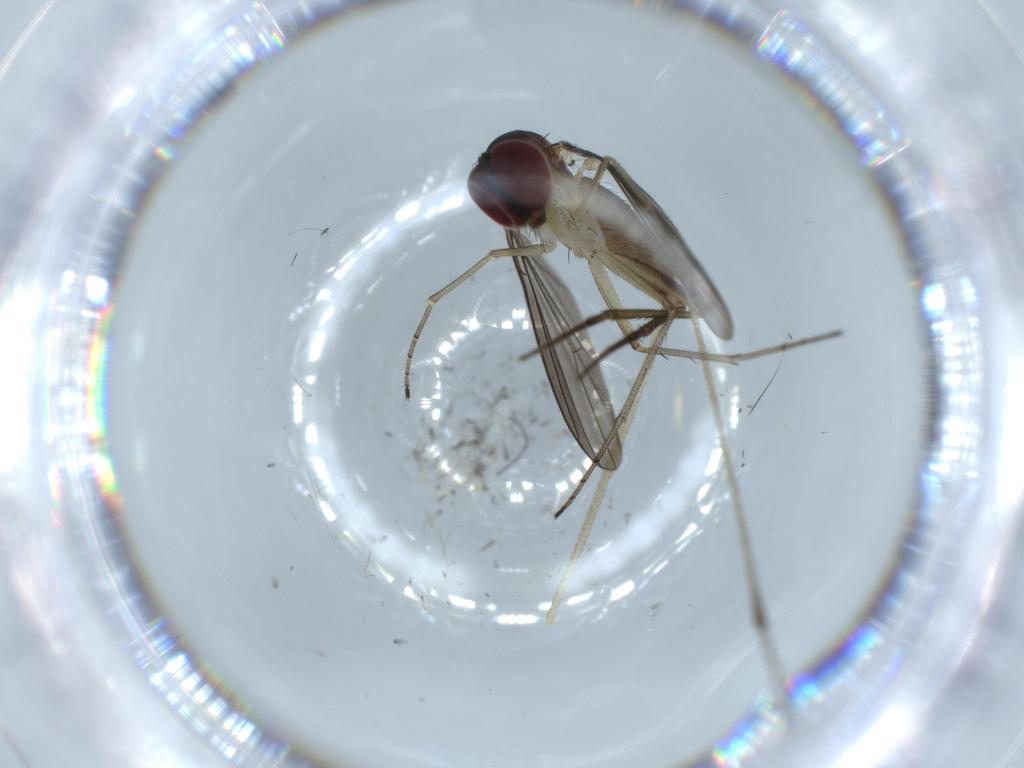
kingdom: Animalia
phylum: Arthropoda
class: Insecta
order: Diptera
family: Dolichopodidae
